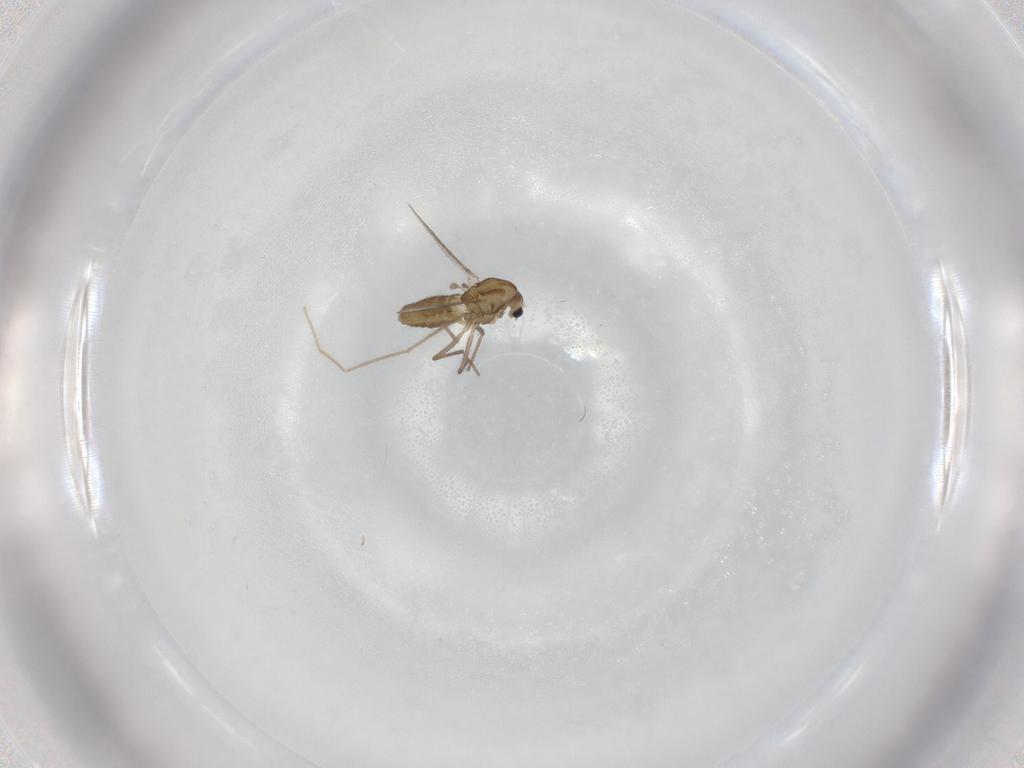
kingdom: Animalia
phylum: Arthropoda
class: Insecta
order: Diptera
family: Chironomidae
